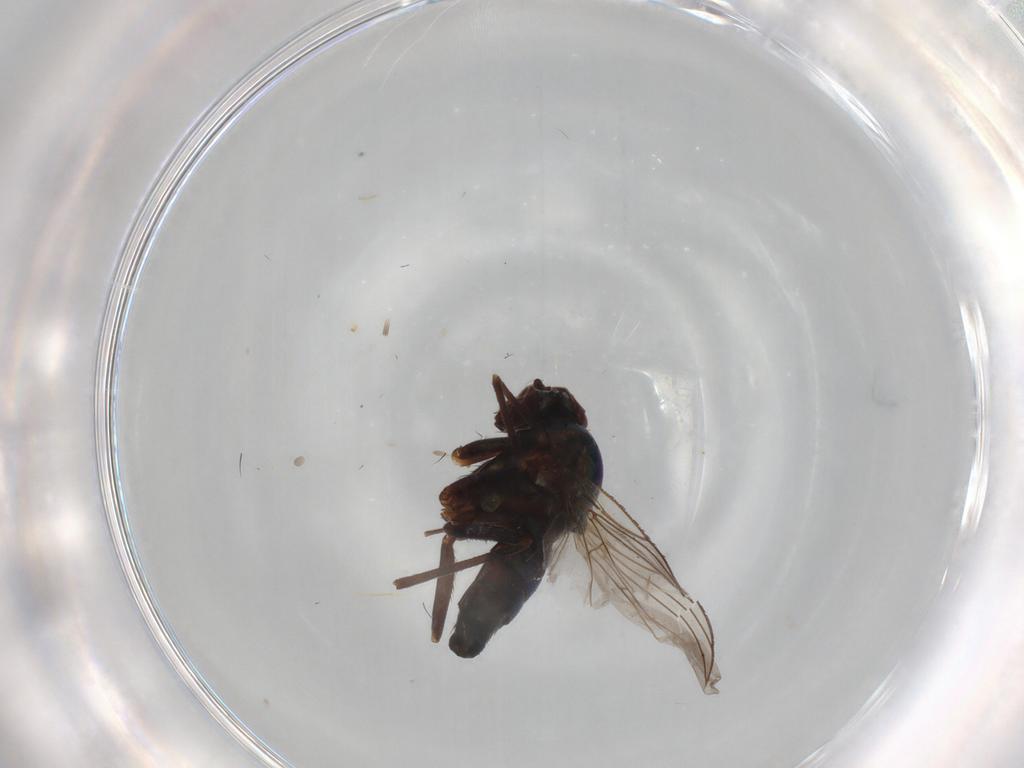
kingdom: Animalia
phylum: Arthropoda
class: Insecta
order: Diptera
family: Dolichopodidae
